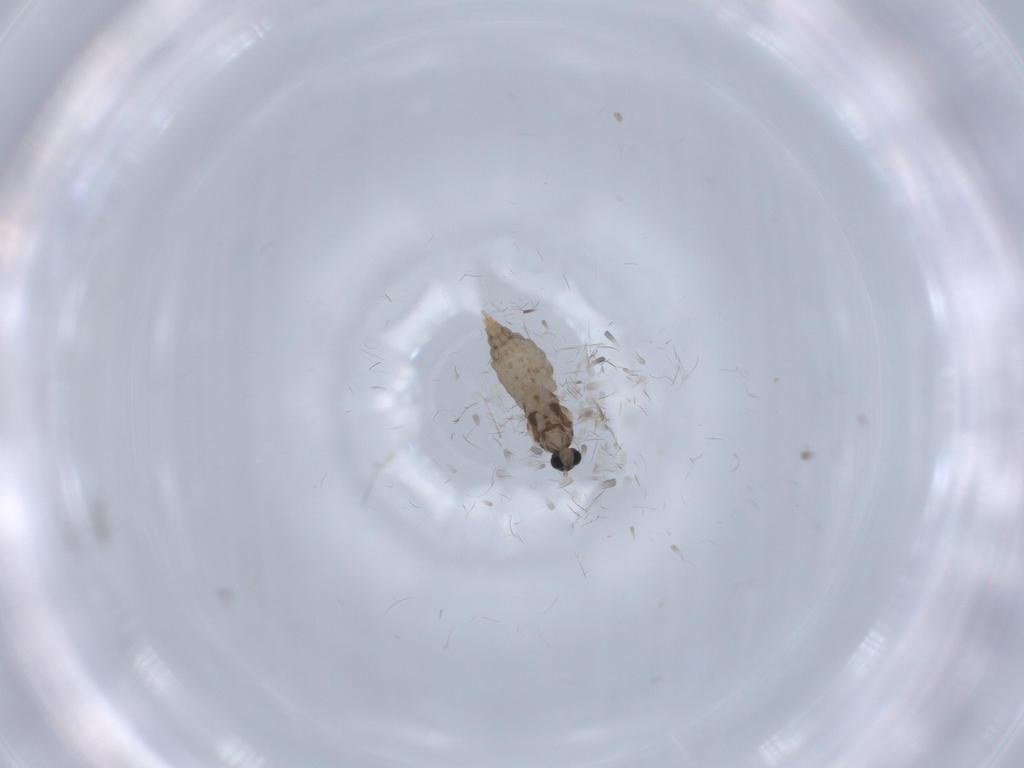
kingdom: Animalia
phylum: Arthropoda
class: Insecta
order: Diptera
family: Cecidomyiidae
